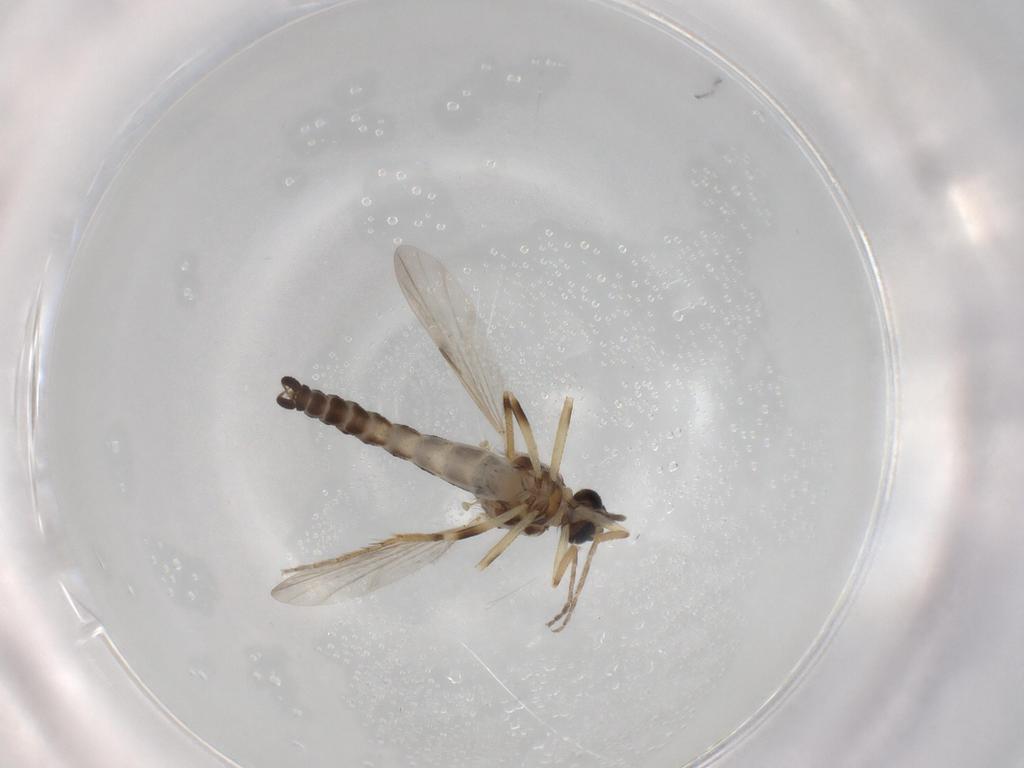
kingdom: Animalia
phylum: Arthropoda
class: Insecta
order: Diptera
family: Ceratopogonidae
